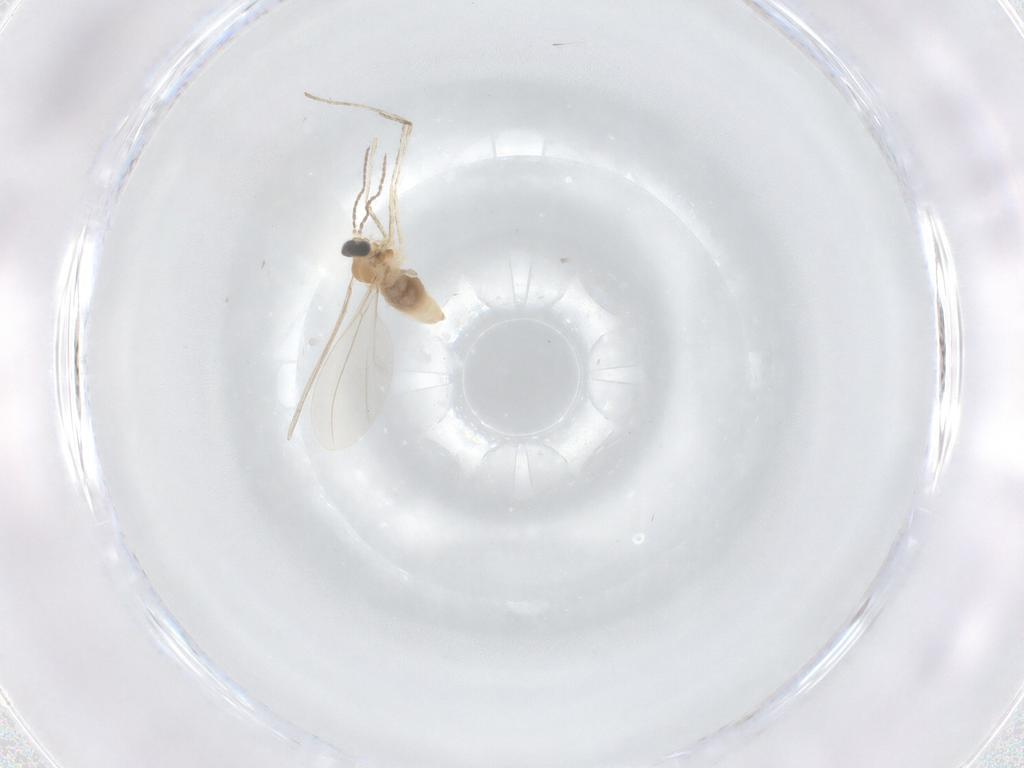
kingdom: Animalia
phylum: Arthropoda
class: Insecta
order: Diptera
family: Cecidomyiidae
